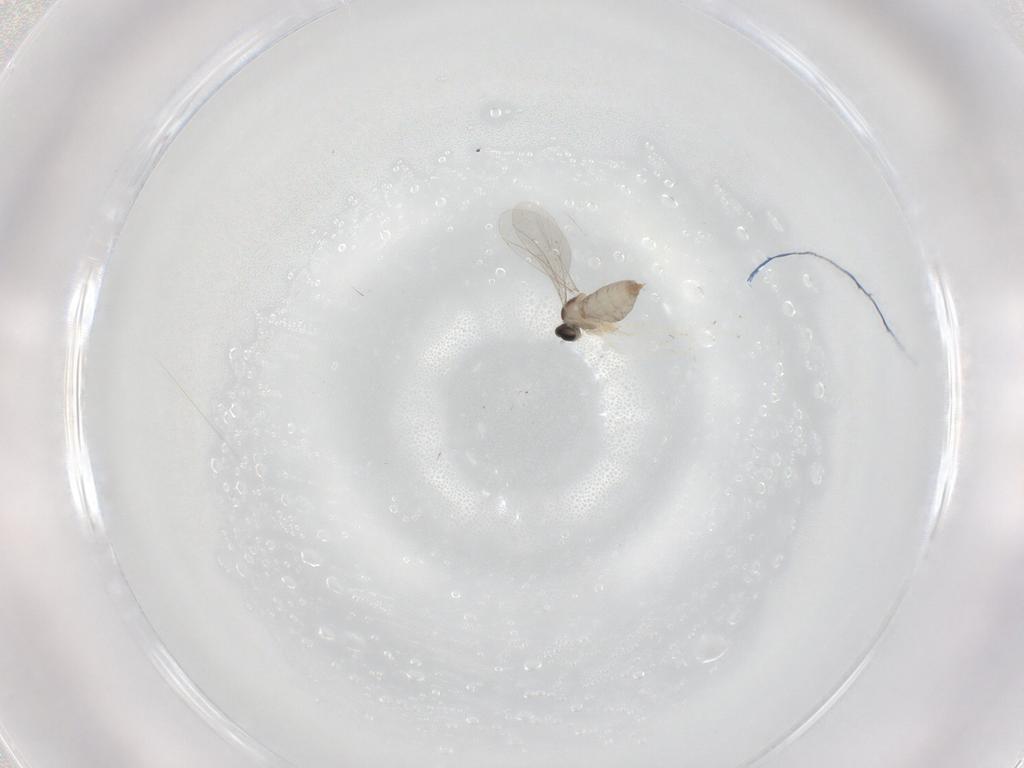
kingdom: Animalia
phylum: Arthropoda
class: Insecta
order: Diptera
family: Cecidomyiidae
